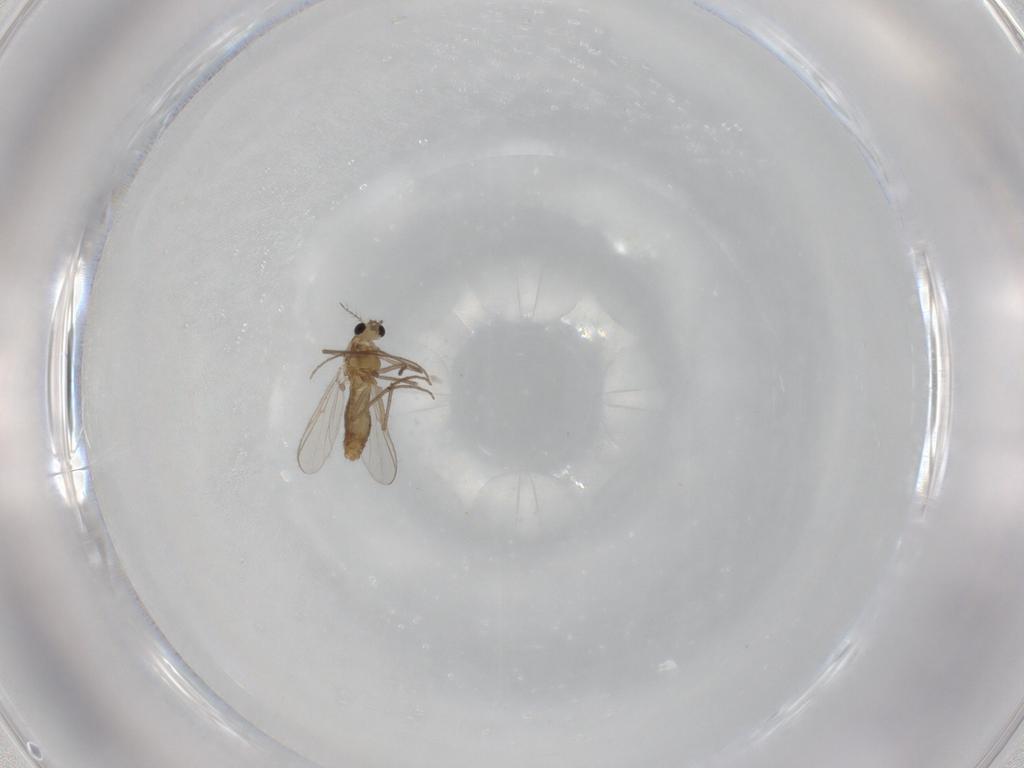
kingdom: Animalia
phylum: Arthropoda
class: Insecta
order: Diptera
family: Chironomidae
